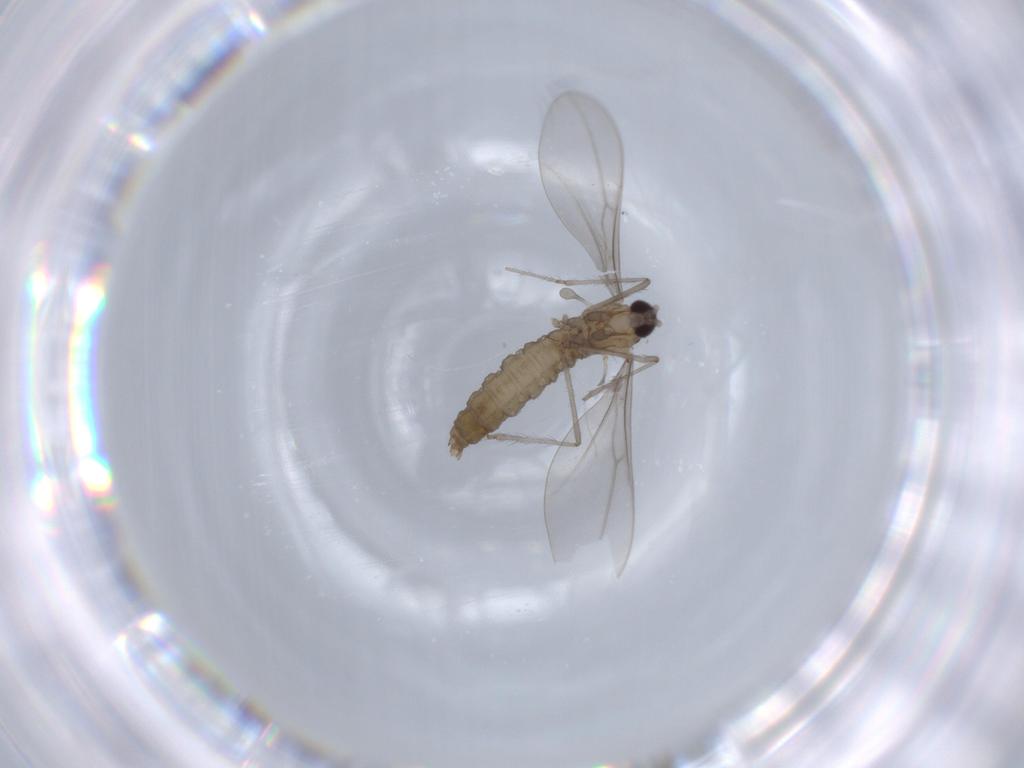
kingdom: Animalia
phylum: Arthropoda
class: Insecta
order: Diptera
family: Cecidomyiidae
